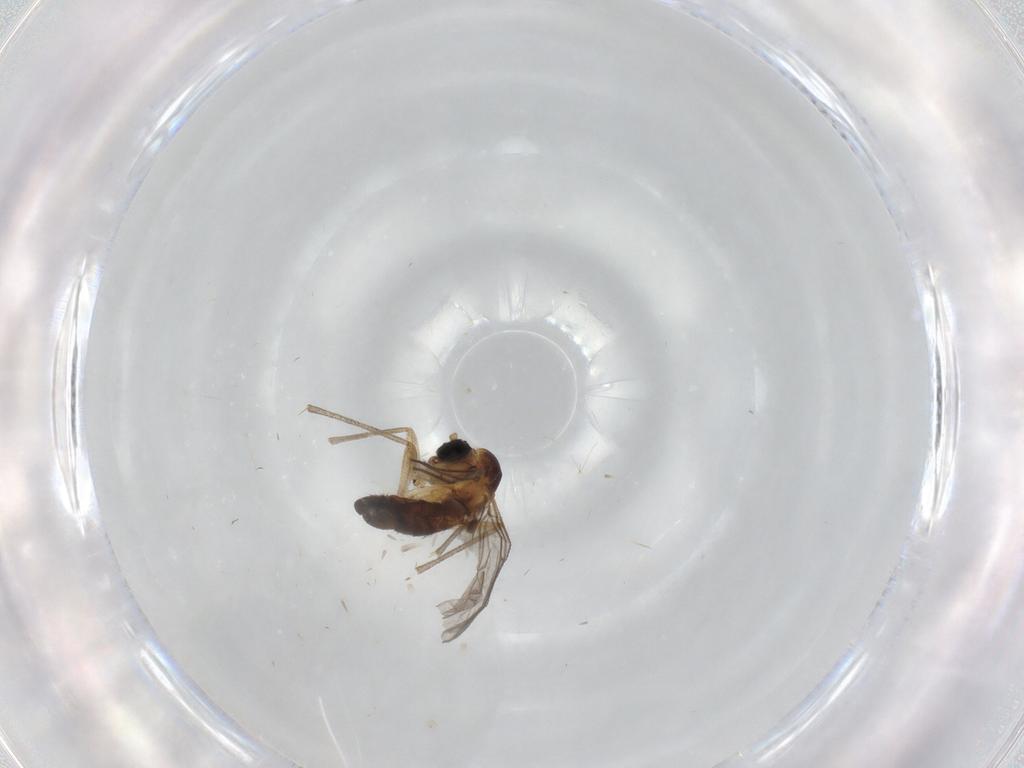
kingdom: Animalia
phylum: Arthropoda
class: Insecta
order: Diptera
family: Sciaridae
